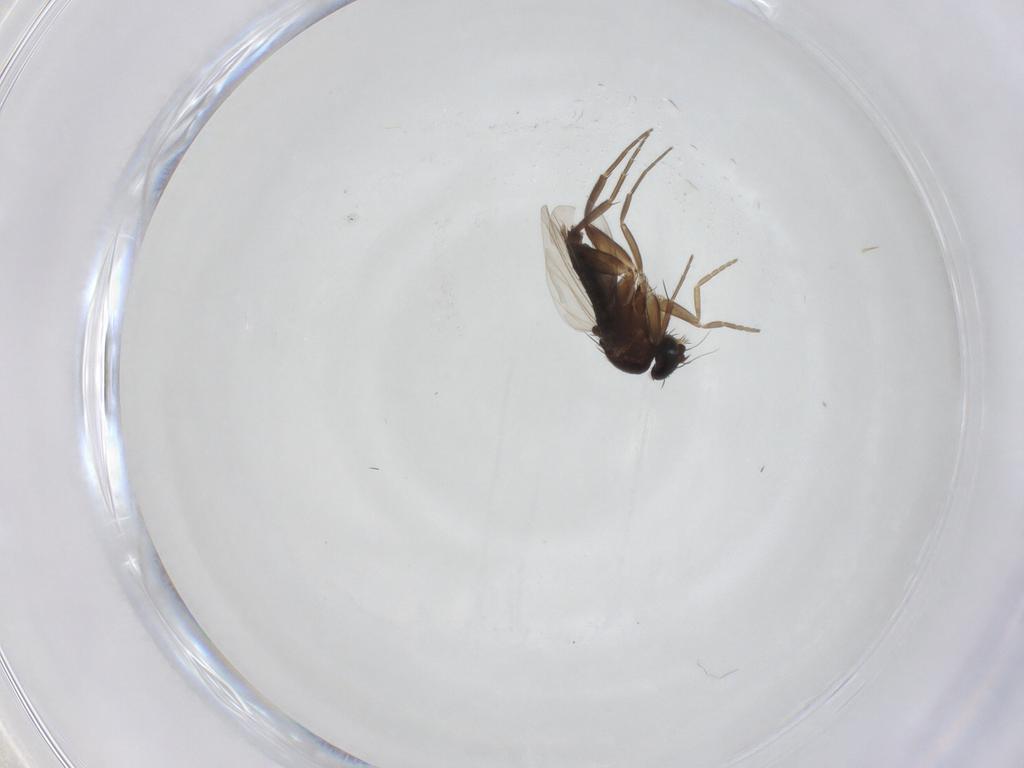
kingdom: Animalia
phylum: Arthropoda
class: Insecta
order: Diptera
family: Phoridae
